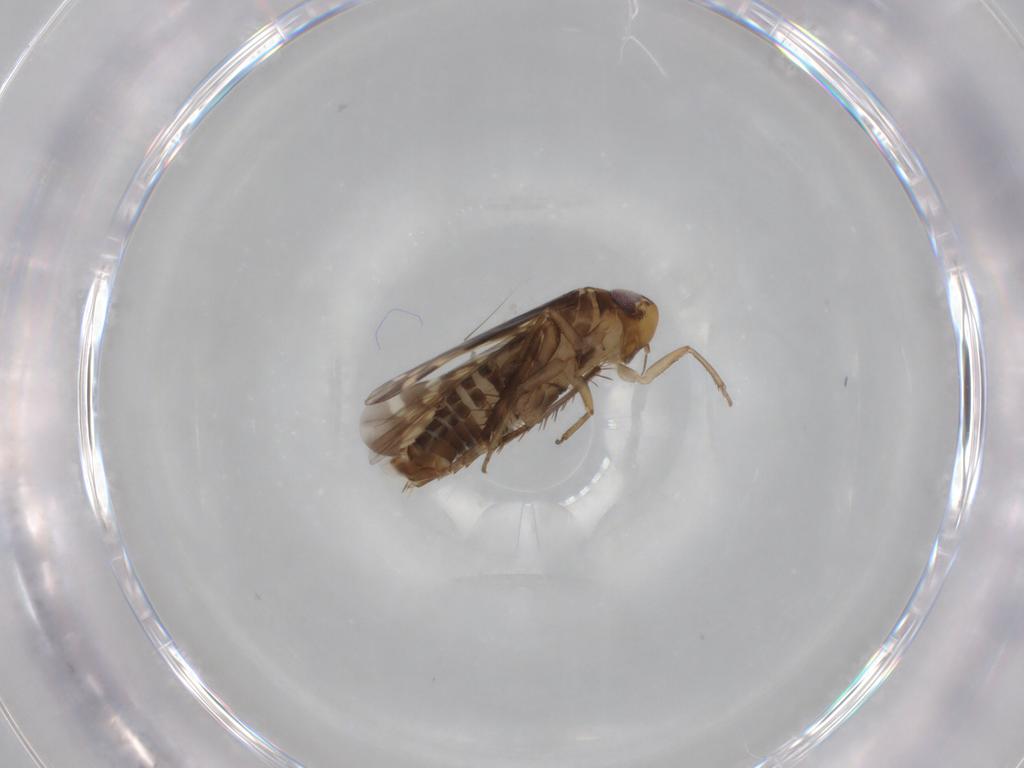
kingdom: Animalia
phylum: Arthropoda
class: Insecta
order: Hemiptera
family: Cicadellidae
